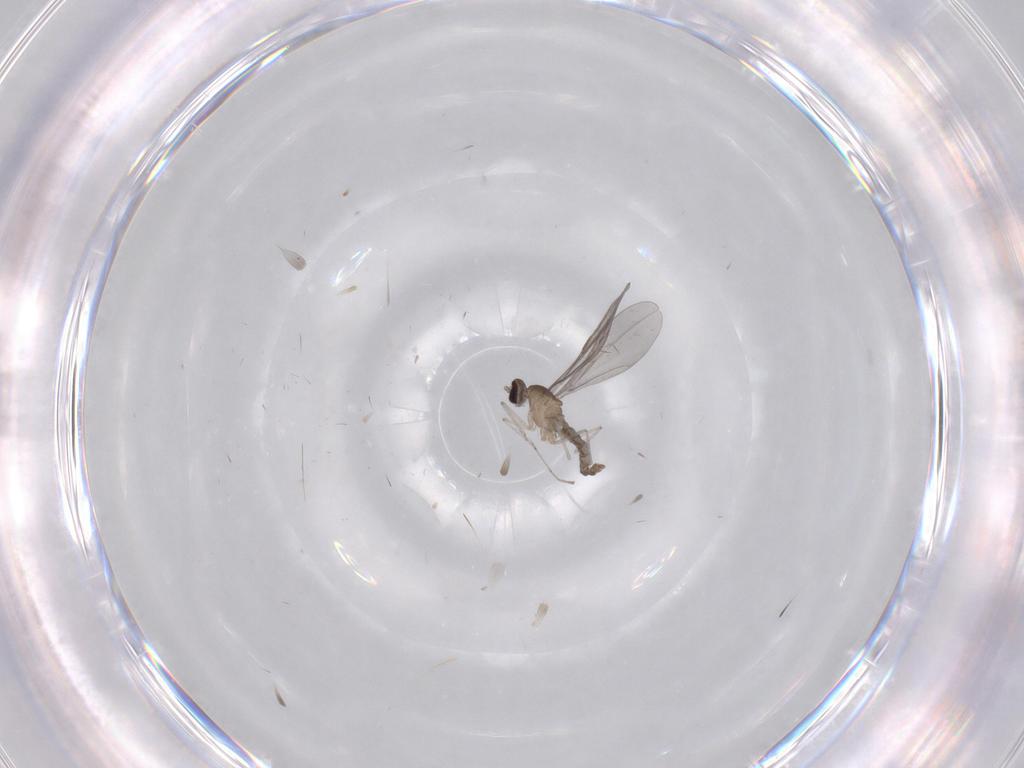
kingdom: Animalia
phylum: Arthropoda
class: Insecta
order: Diptera
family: Cecidomyiidae
